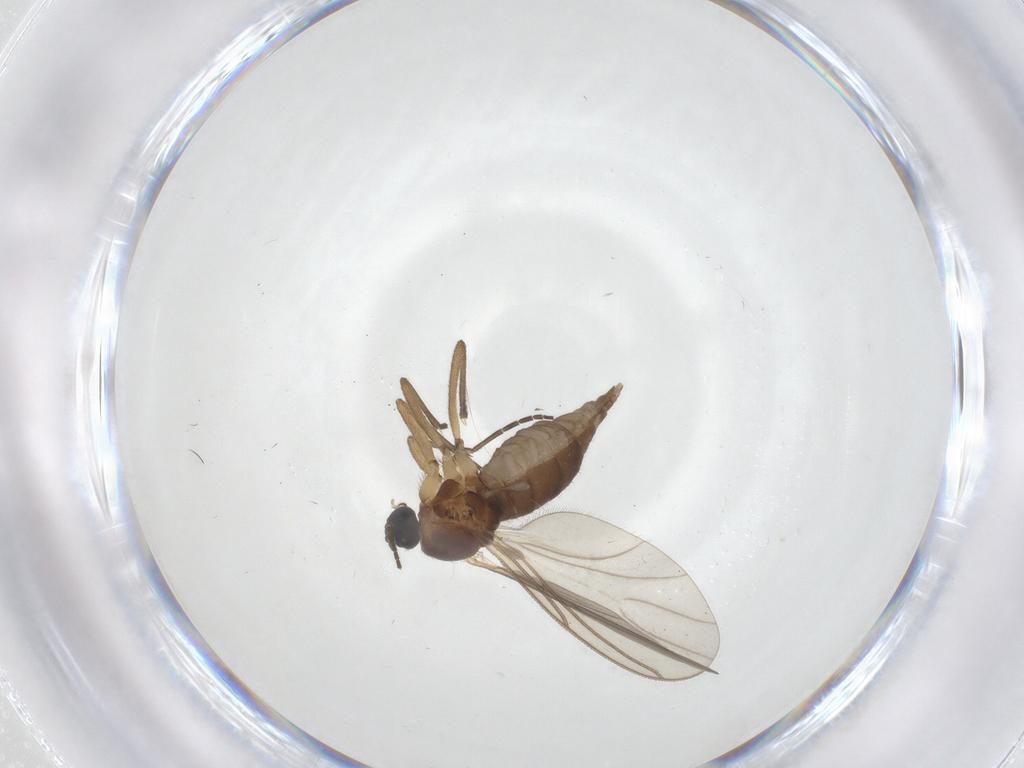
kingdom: Animalia
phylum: Arthropoda
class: Insecta
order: Diptera
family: Sciaridae
